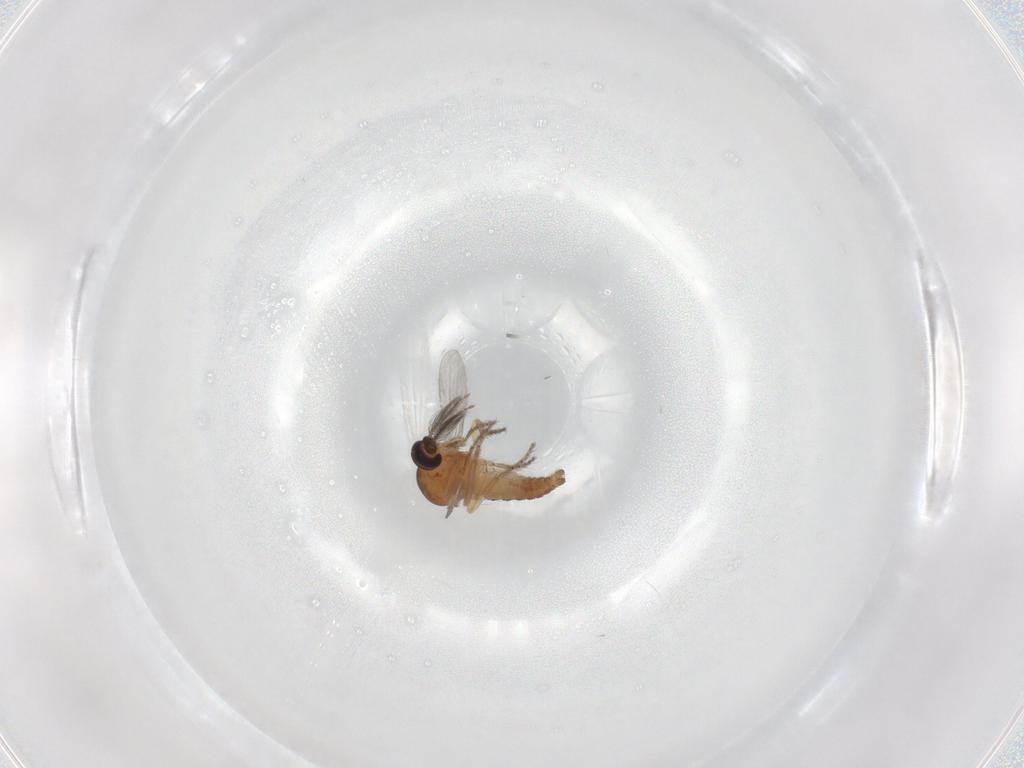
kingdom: Animalia
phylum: Arthropoda
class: Insecta
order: Diptera
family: Ceratopogonidae
